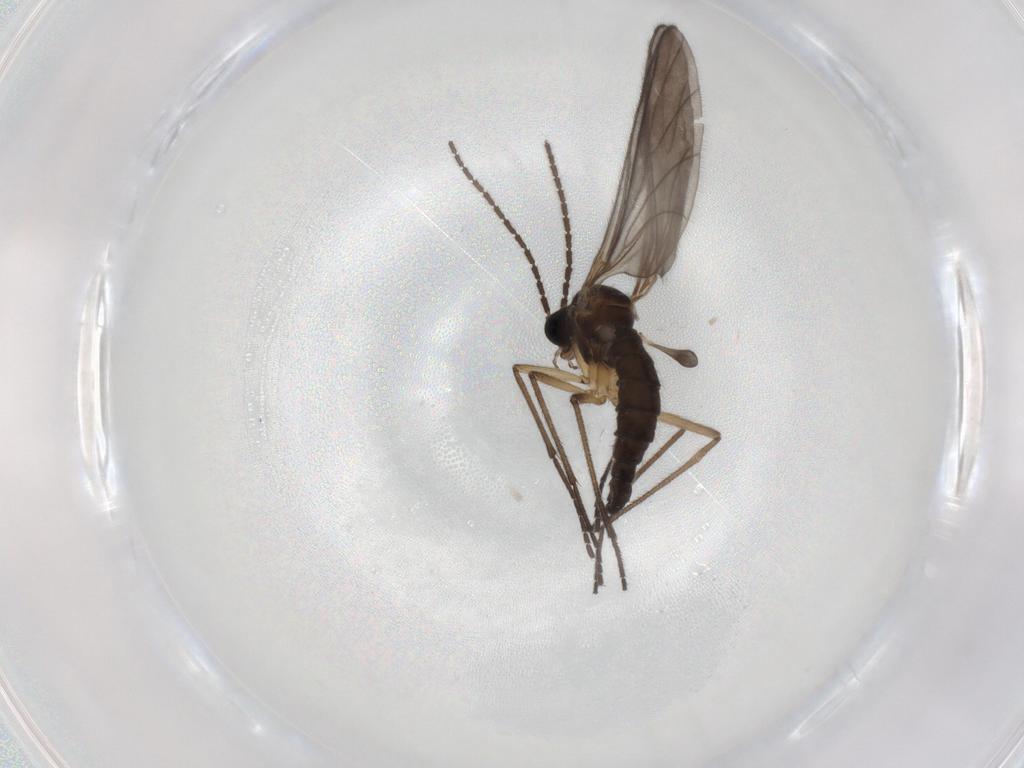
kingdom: Animalia
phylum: Arthropoda
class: Insecta
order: Diptera
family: Sciaridae
